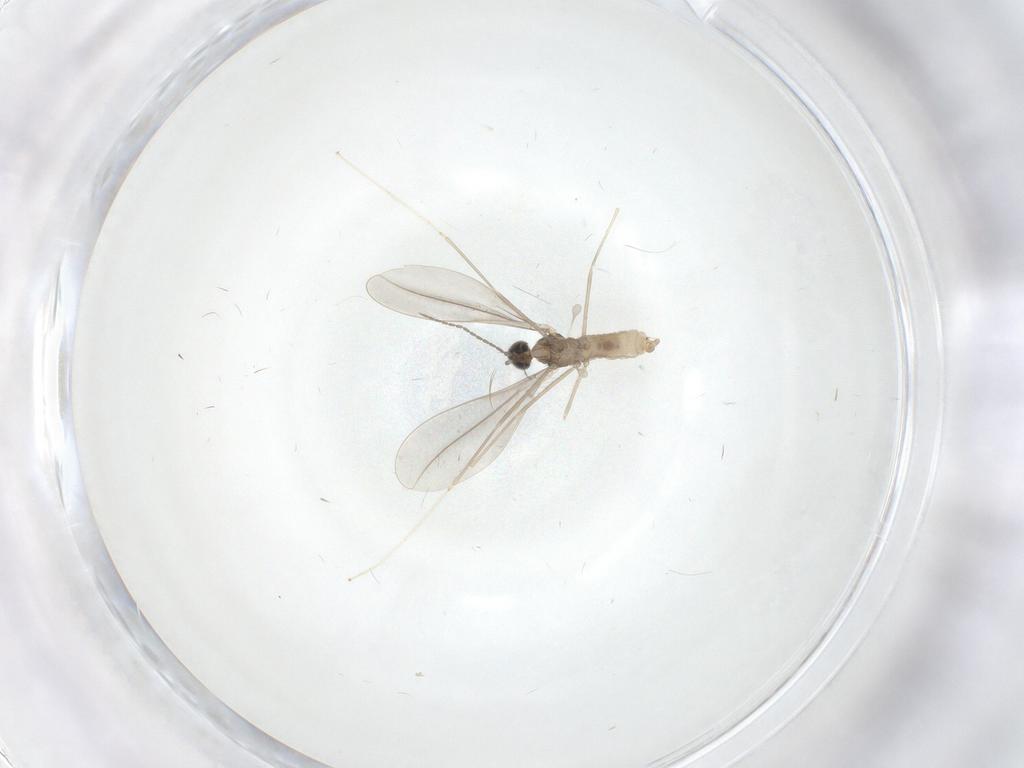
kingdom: Animalia
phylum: Arthropoda
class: Insecta
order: Diptera
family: Cecidomyiidae
